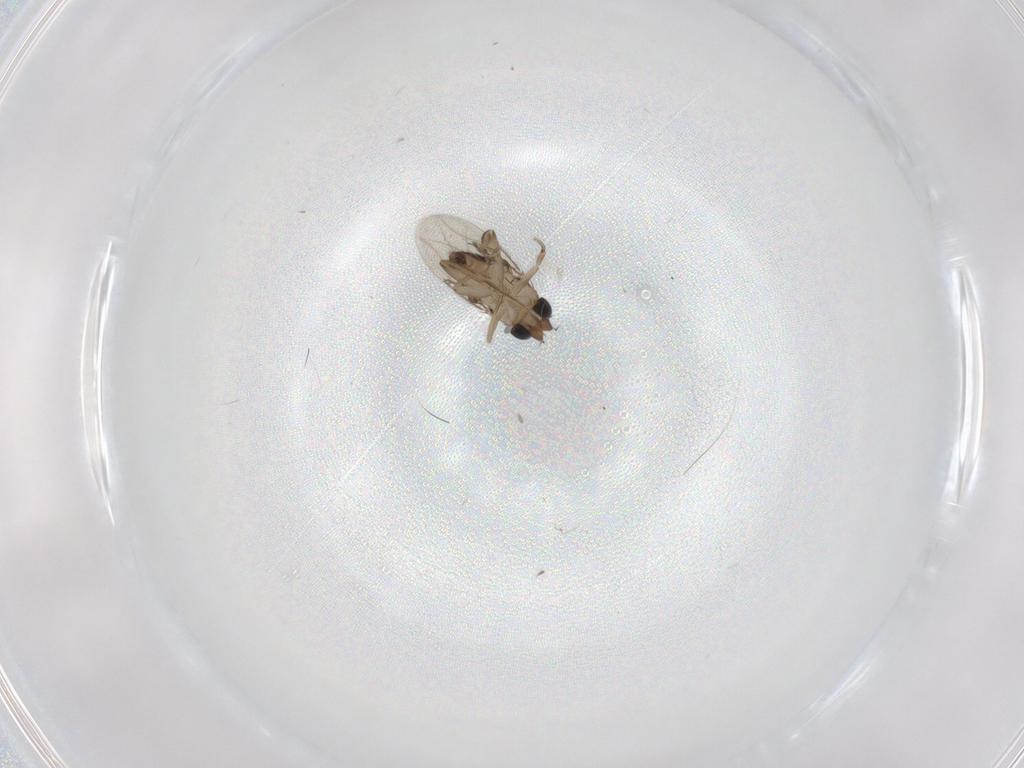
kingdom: Animalia
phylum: Arthropoda
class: Insecta
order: Diptera
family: Phoridae
